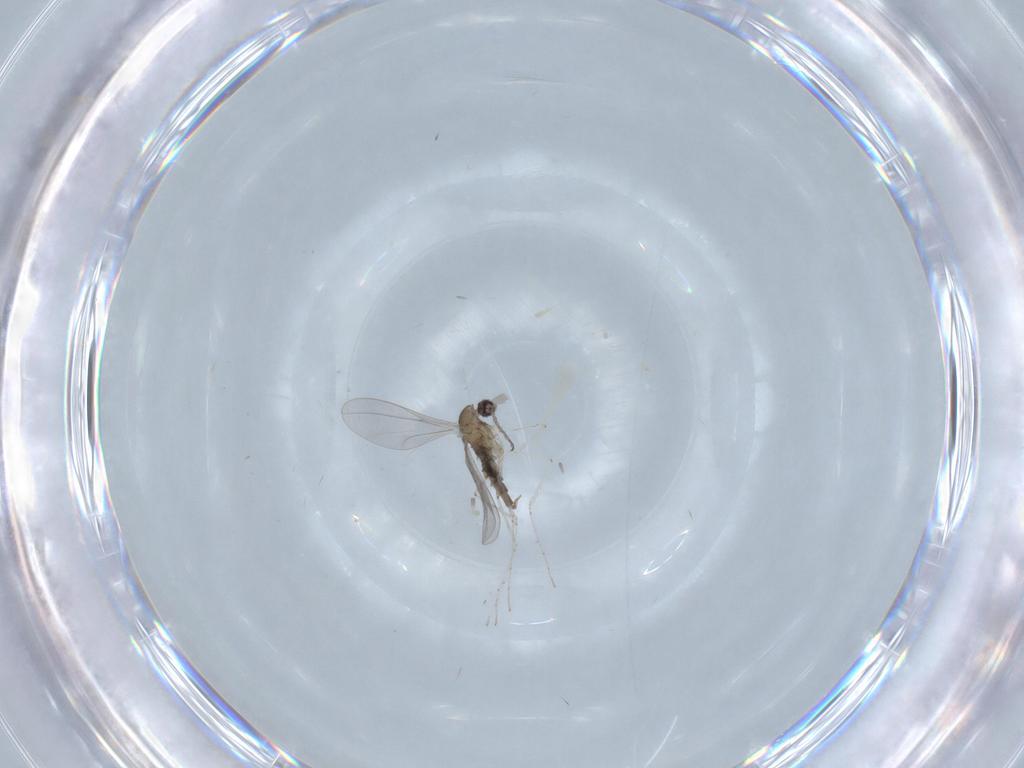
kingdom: Animalia
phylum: Arthropoda
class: Insecta
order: Diptera
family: Cecidomyiidae
